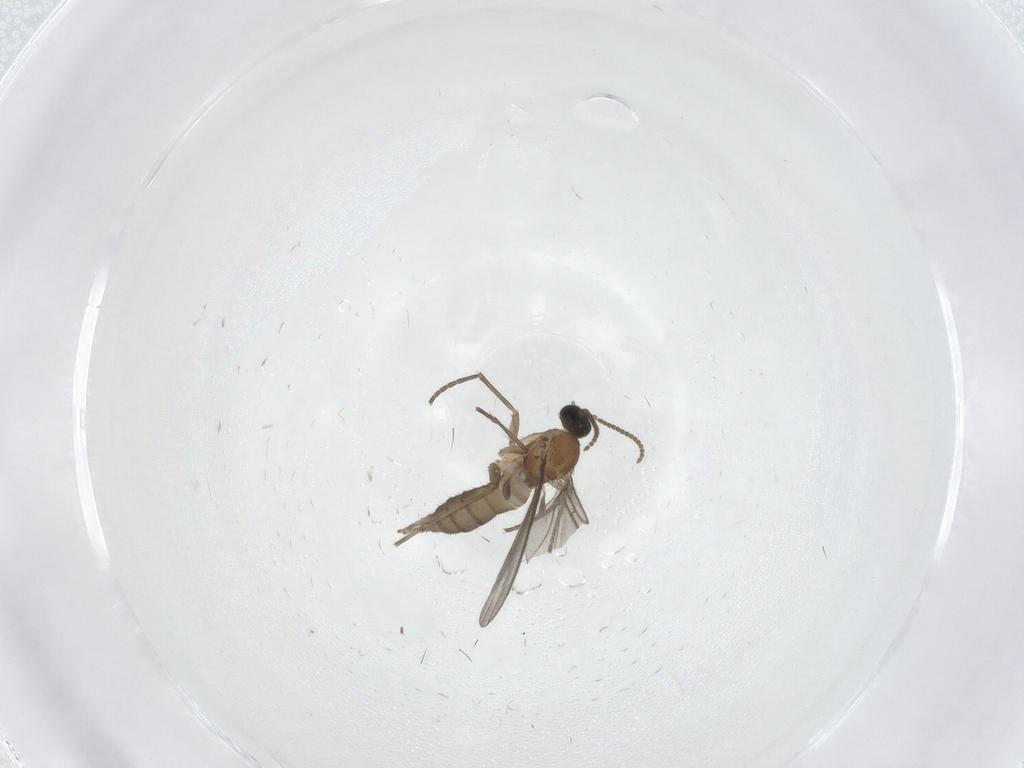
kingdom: Animalia
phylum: Arthropoda
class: Insecta
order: Diptera
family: Sciaridae
